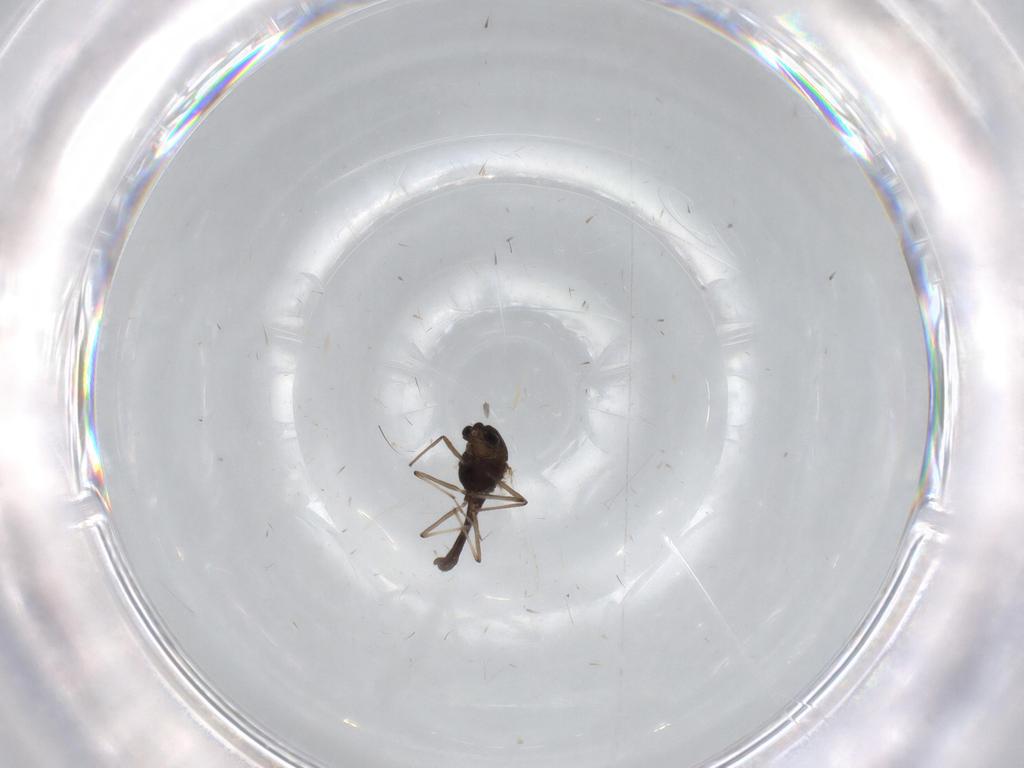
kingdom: Animalia
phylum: Arthropoda
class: Insecta
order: Diptera
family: Chironomidae
